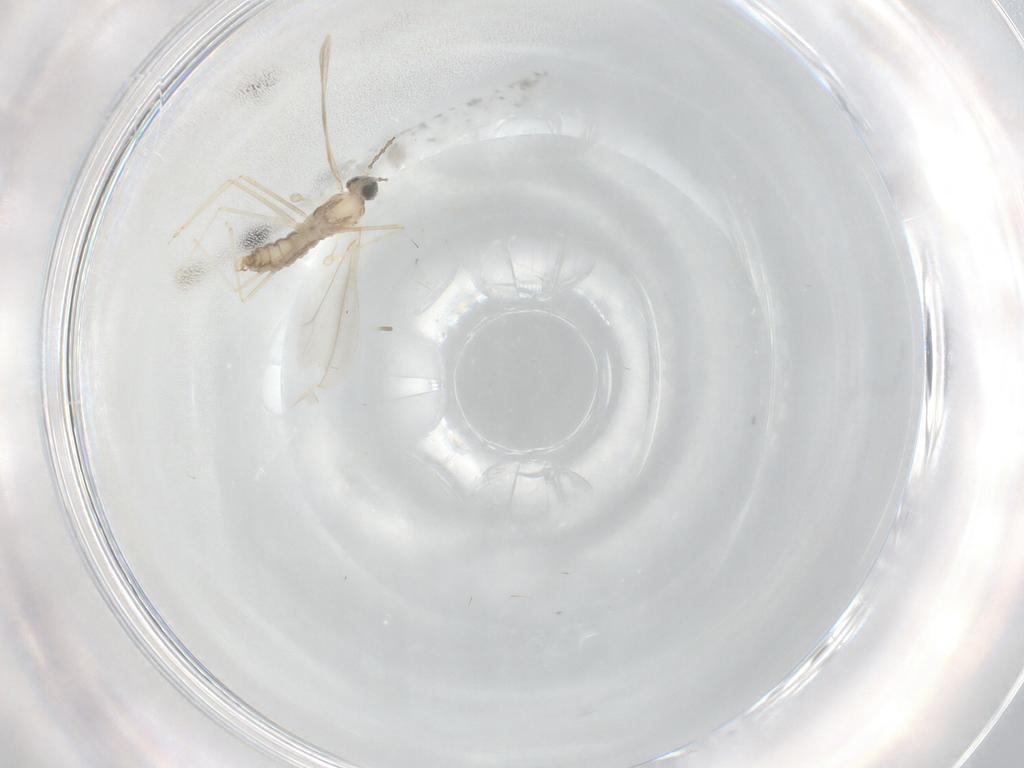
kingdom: Animalia
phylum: Arthropoda
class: Insecta
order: Diptera
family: Cecidomyiidae
